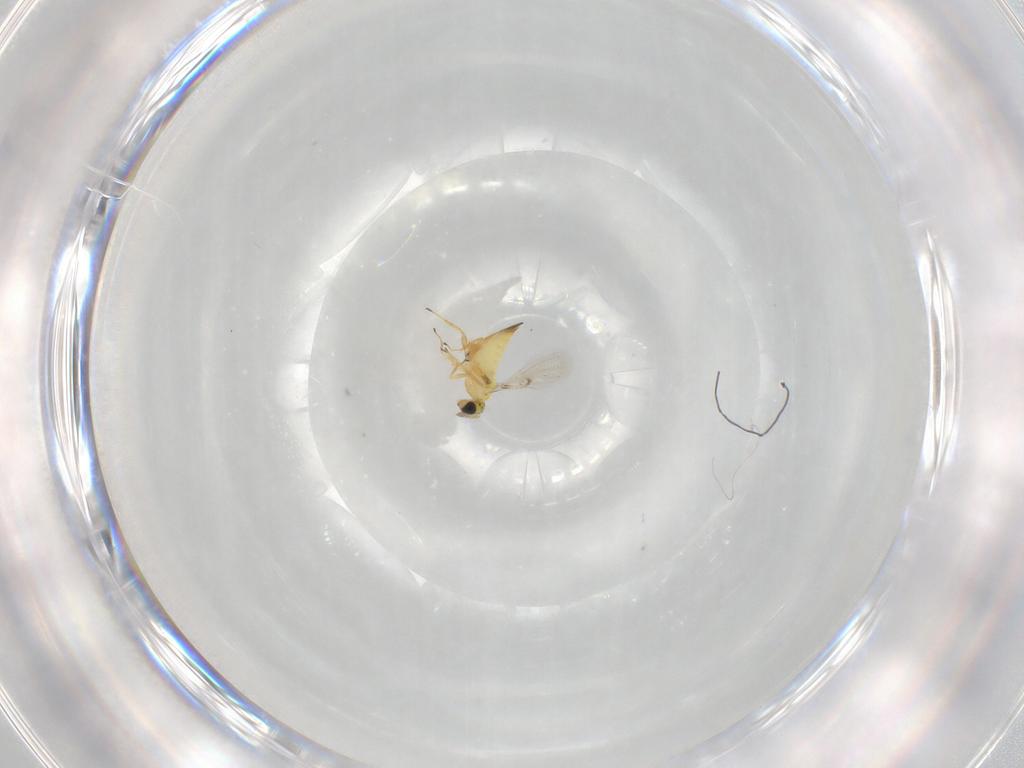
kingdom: Animalia
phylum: Arthropoda
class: Insecta
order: Hymenoptera
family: Trichogrammatidae
